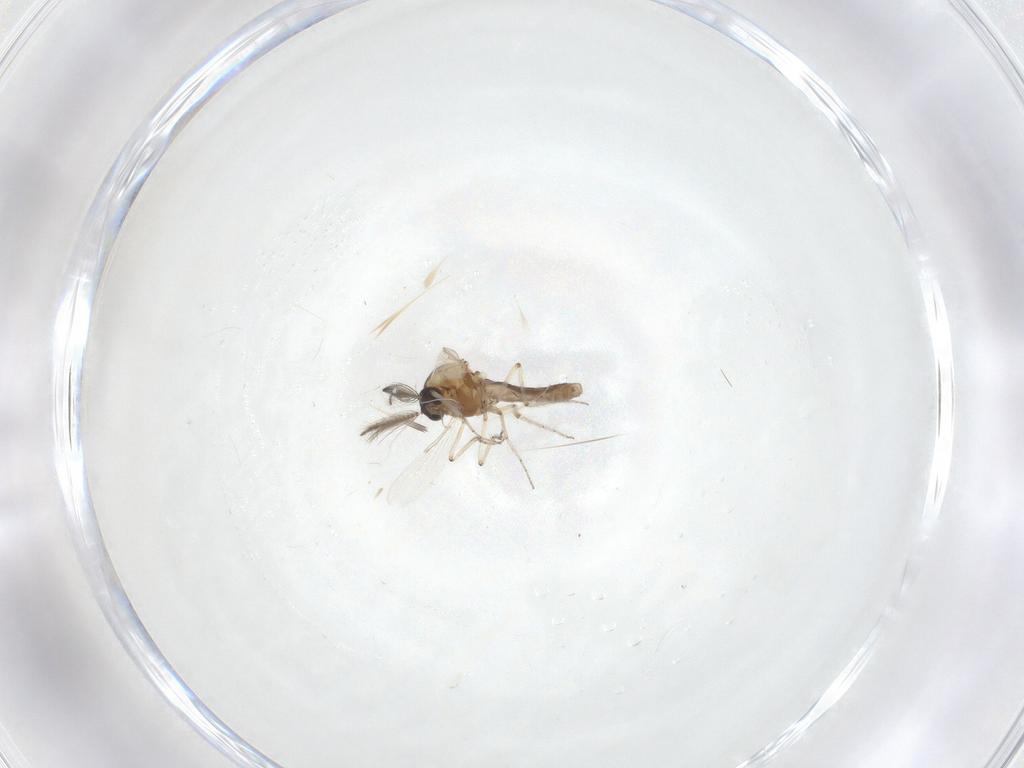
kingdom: Animalia
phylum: Arthropoda
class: Insecta
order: Diptera
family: Ceratopogonidae
